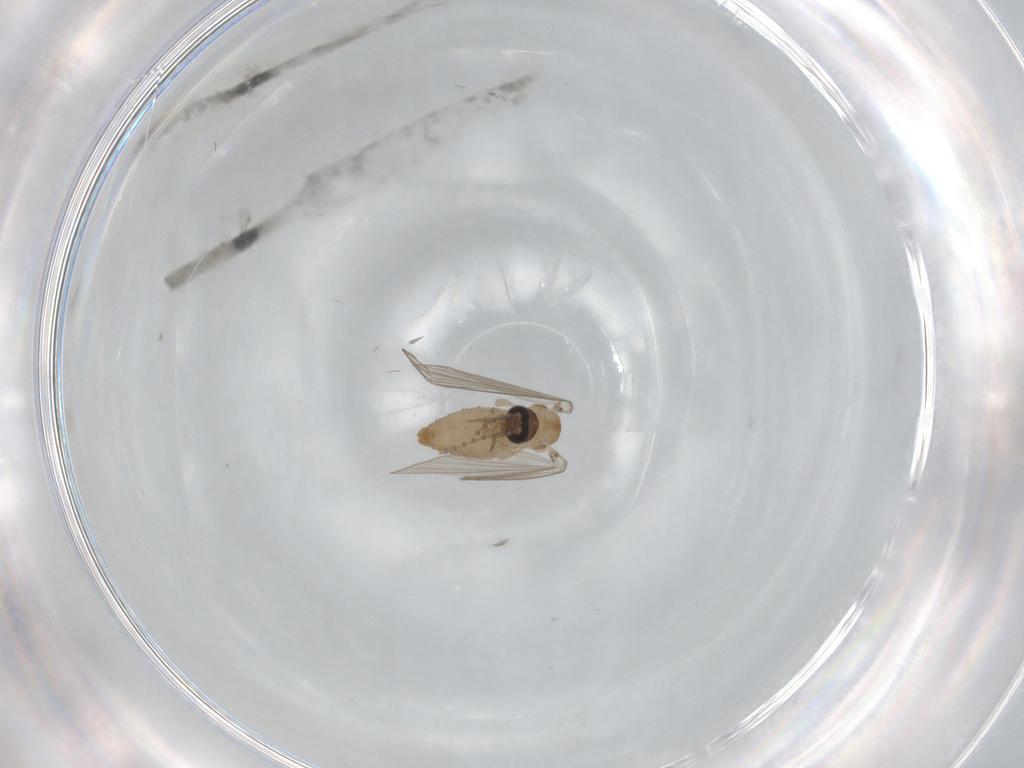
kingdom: Animalia
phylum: Arthropoda
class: Insecta
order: Diptera
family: Psychodidae
